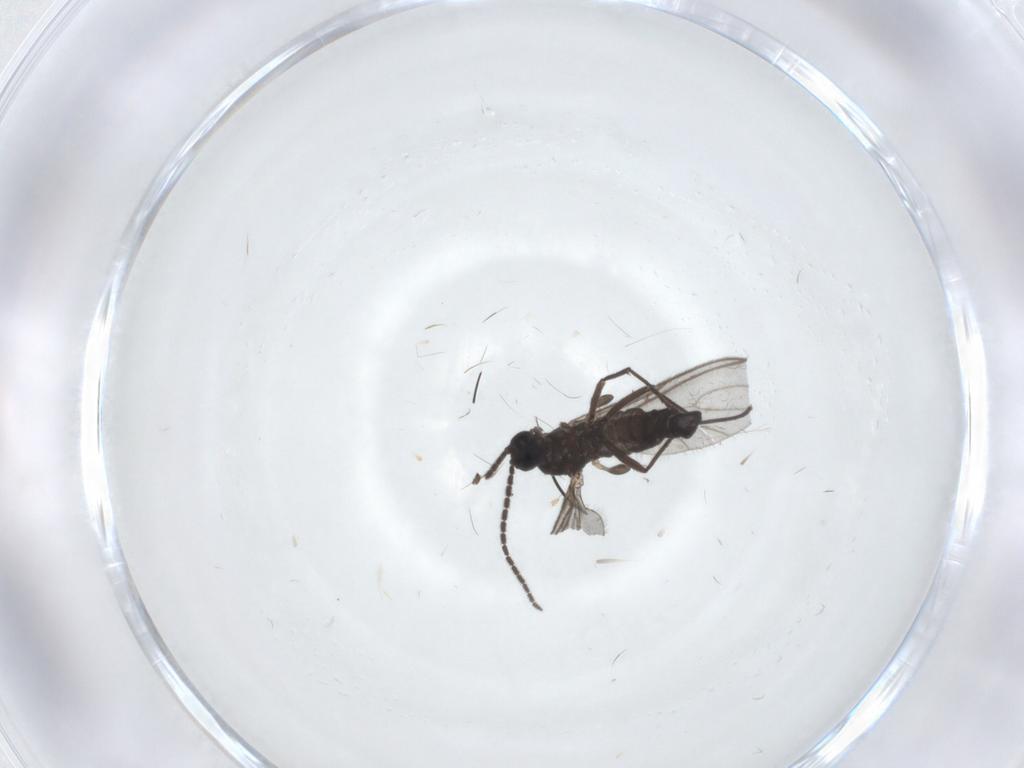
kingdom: Animalia
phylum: Arthropoda
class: Insecta
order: Diptera
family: Sciaridae
